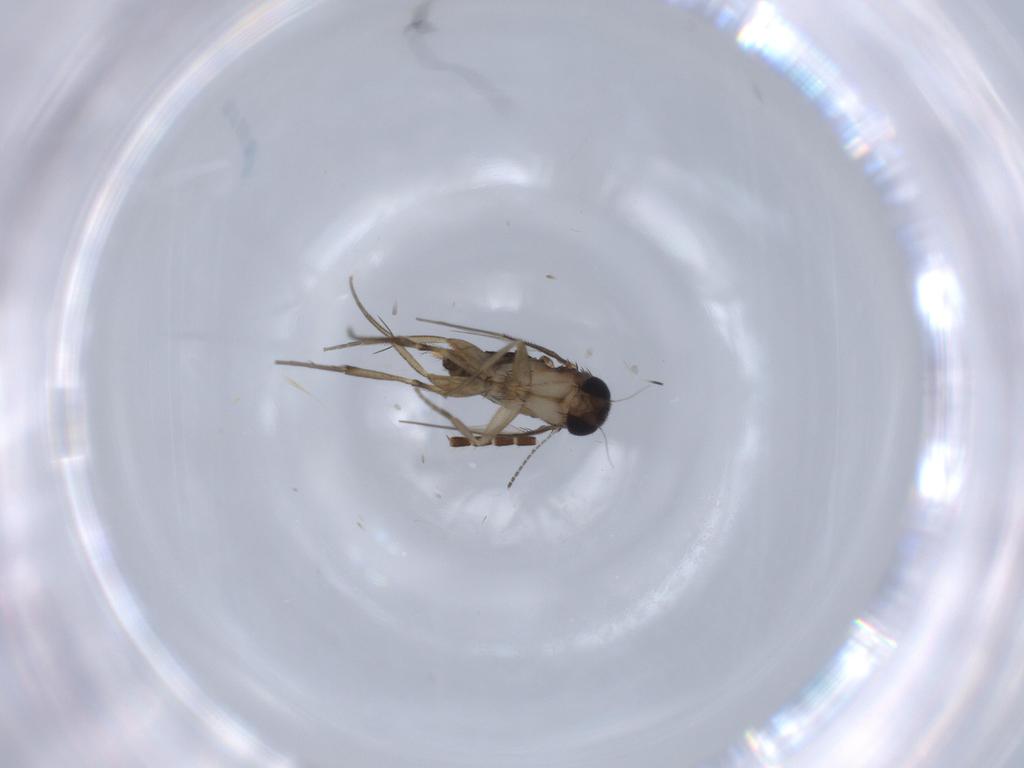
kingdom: Animalia
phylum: Arthropoda
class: Insecta
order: Diptera
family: Phoridae
